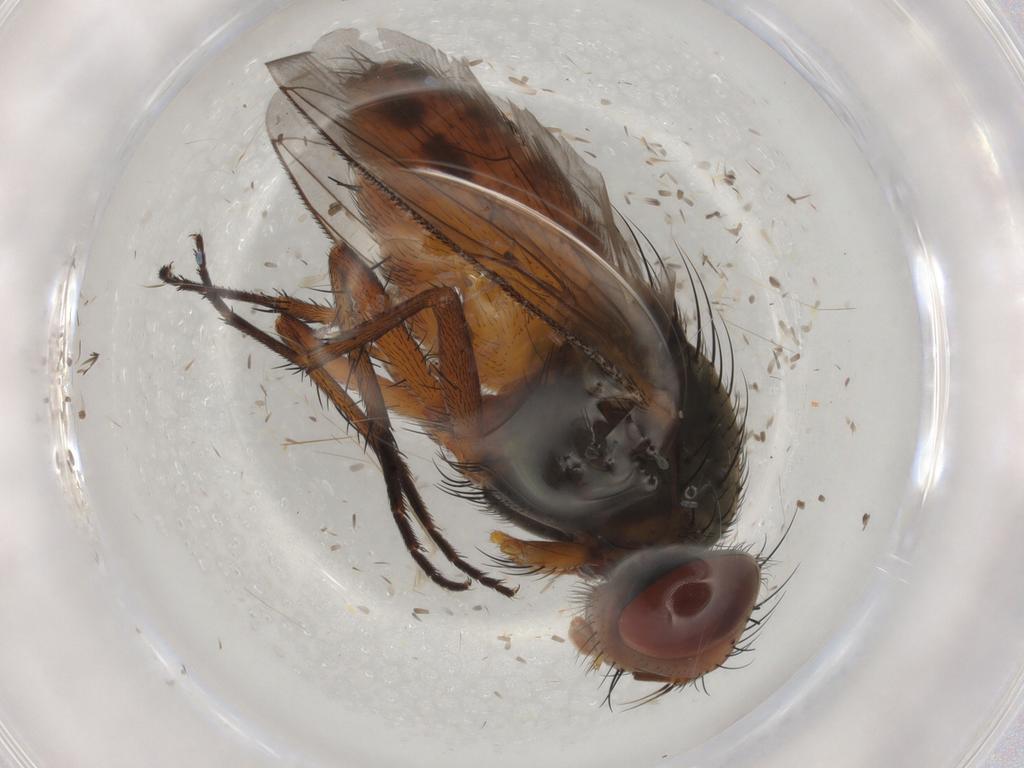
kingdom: Animalia
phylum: Arthropoda
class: Insecta
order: Diptera
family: Sarcophagidae
